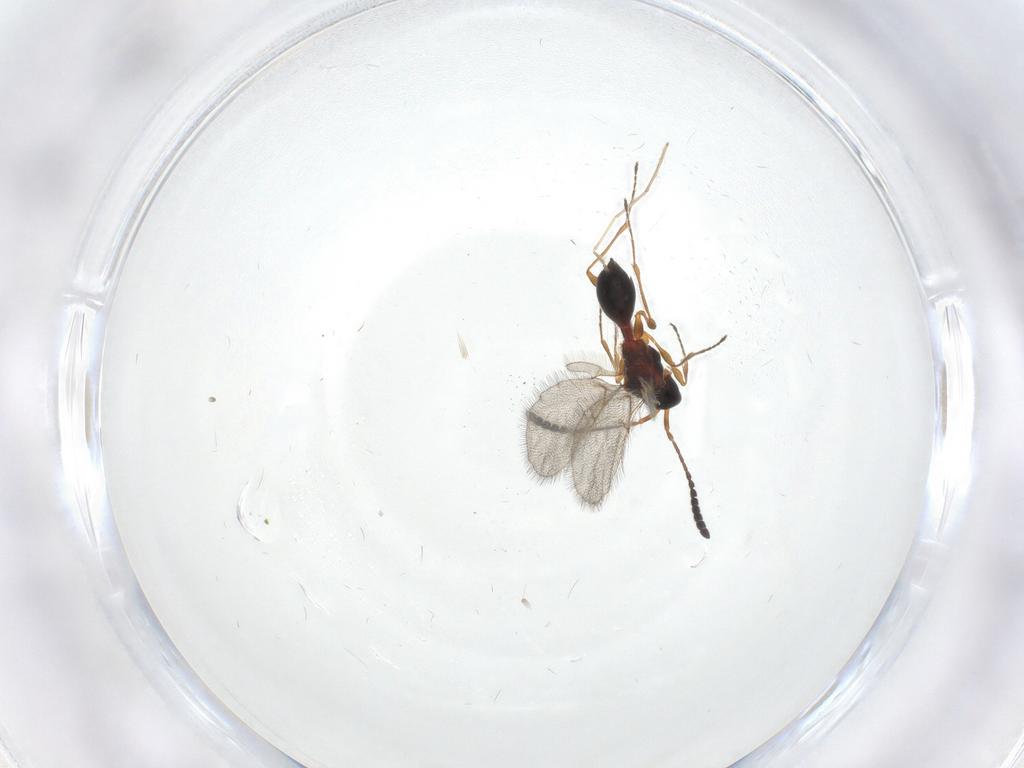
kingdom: Animalia
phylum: Arthropoda
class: Insecta
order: Hymenoptera
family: Diapriidae
